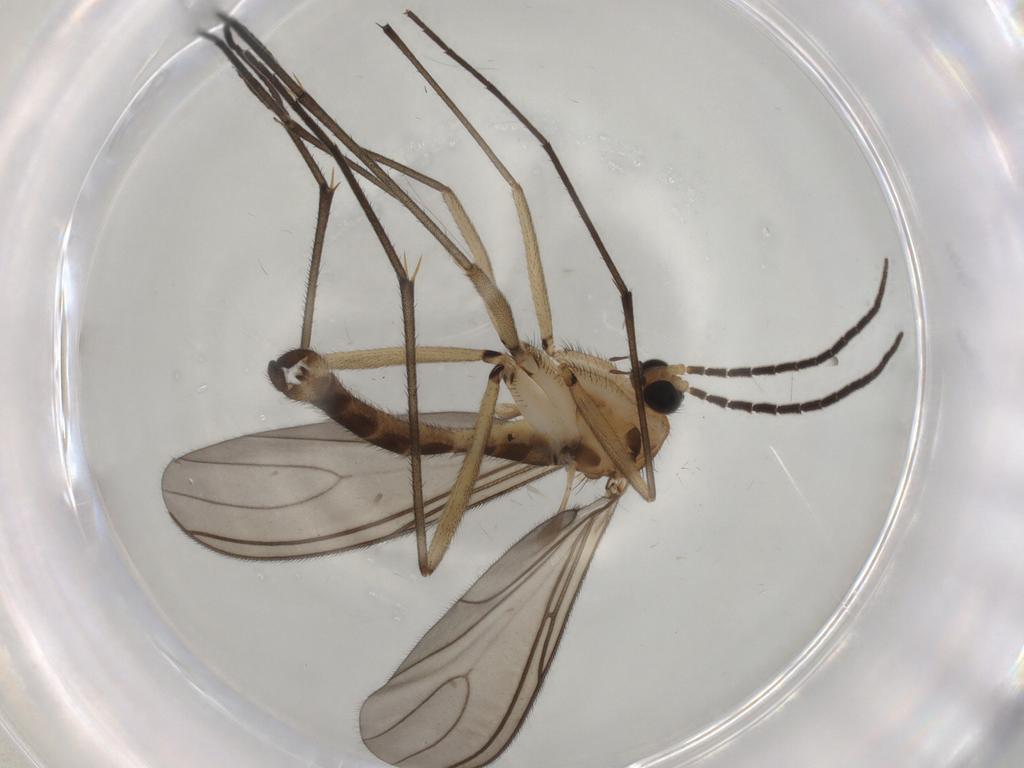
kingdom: Animalia
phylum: Arthropoda
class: Insecta
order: Diptera
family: Sciaridae
